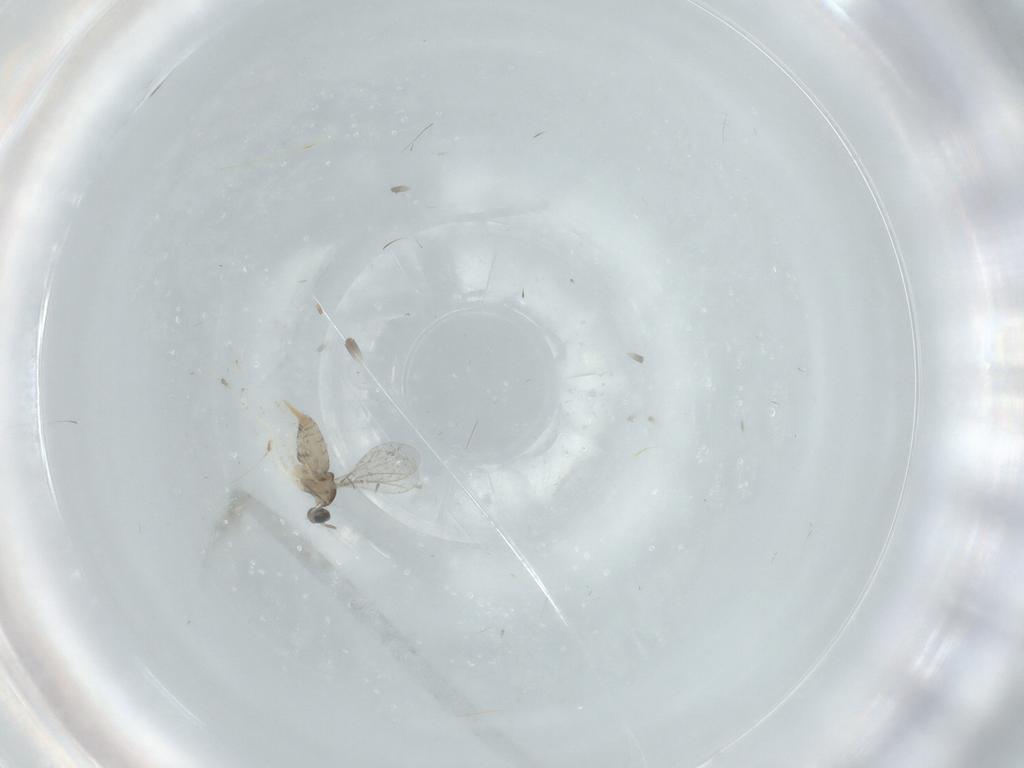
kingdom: Animalia
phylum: Arthropoda
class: Insecta
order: Diptera
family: Cecidomyiidae
